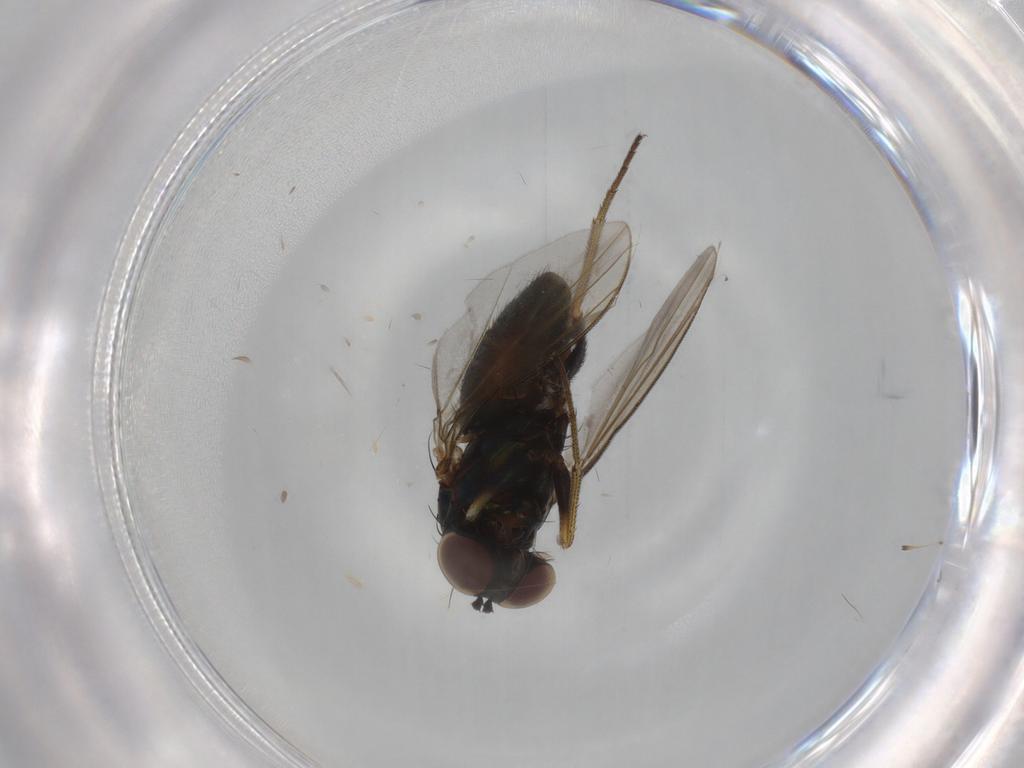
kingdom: Animalia
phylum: Arthropoda
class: Insecta
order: Diptera
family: Dolichopodidae
